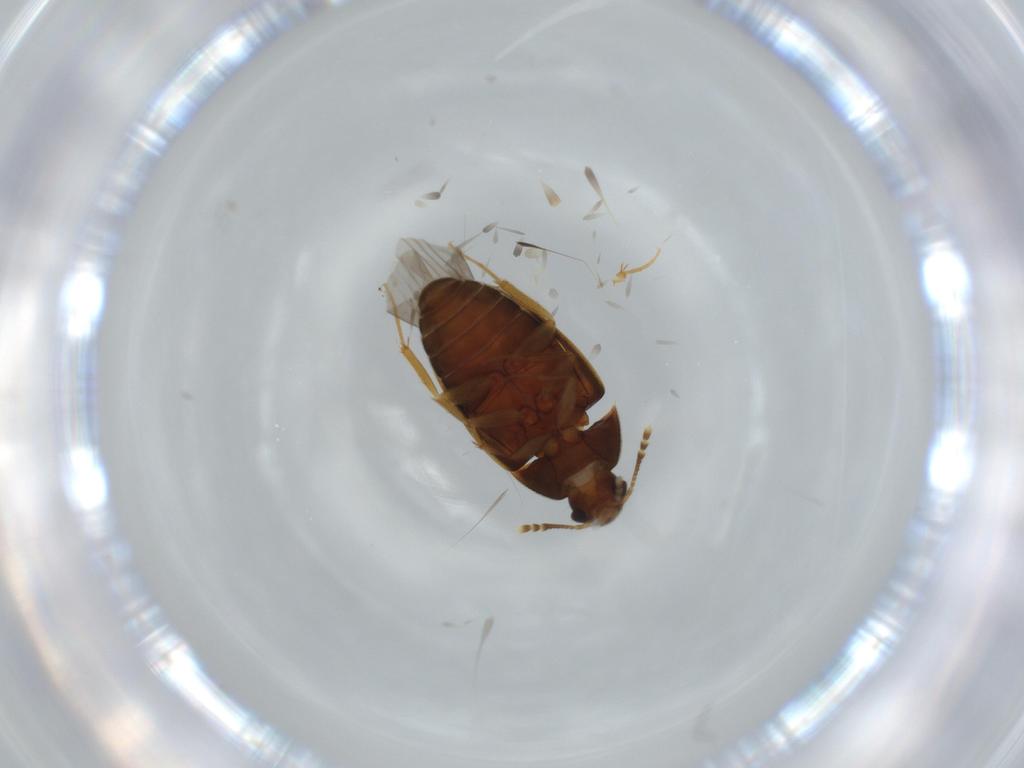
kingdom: Animalia
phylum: Arthropoda
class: Insecta
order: Coleoptera
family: Mycetophagidae
